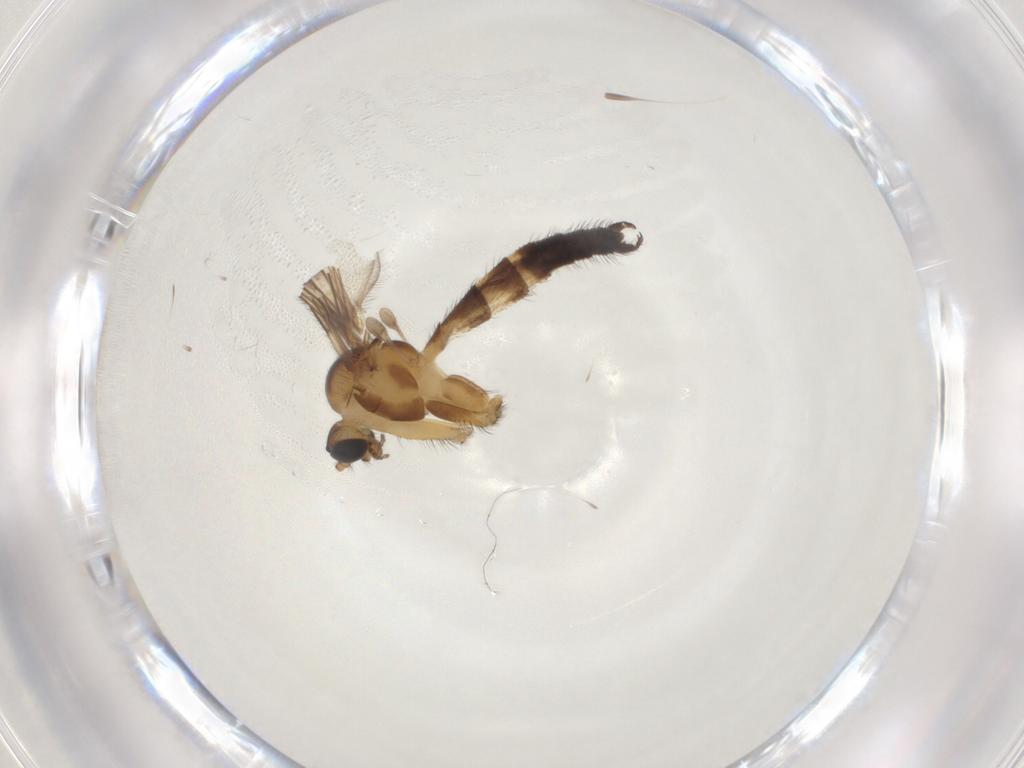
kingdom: Animalia
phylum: Arthropoda
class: Insecta
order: Diptera
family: Keroplatidae
